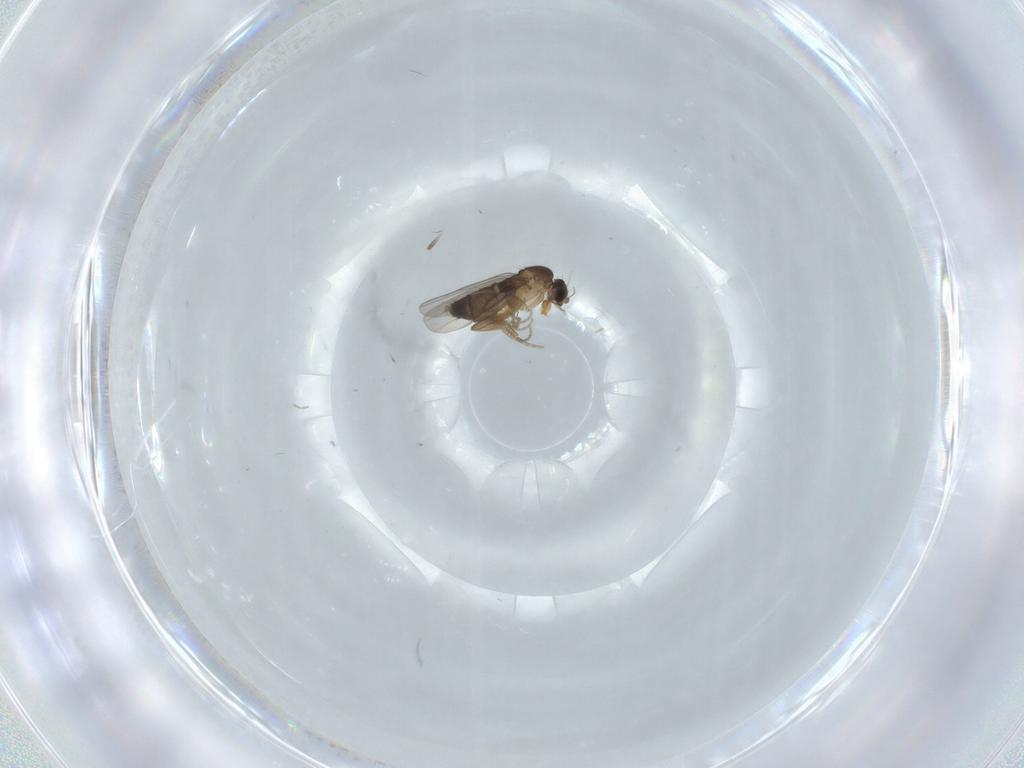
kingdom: Animalia
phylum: Arthropoda
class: Insecta
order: Diptera
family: Phoridae
